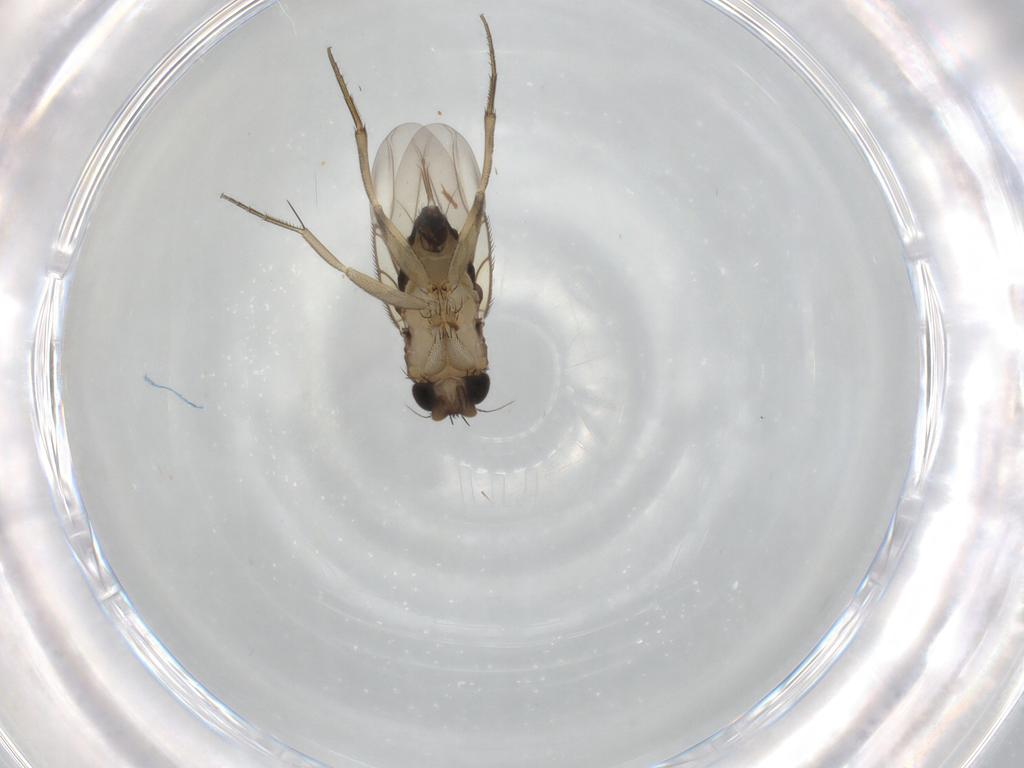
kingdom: Animalia
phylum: Arthropoda
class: Insecta
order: Diptera
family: Phoridae
